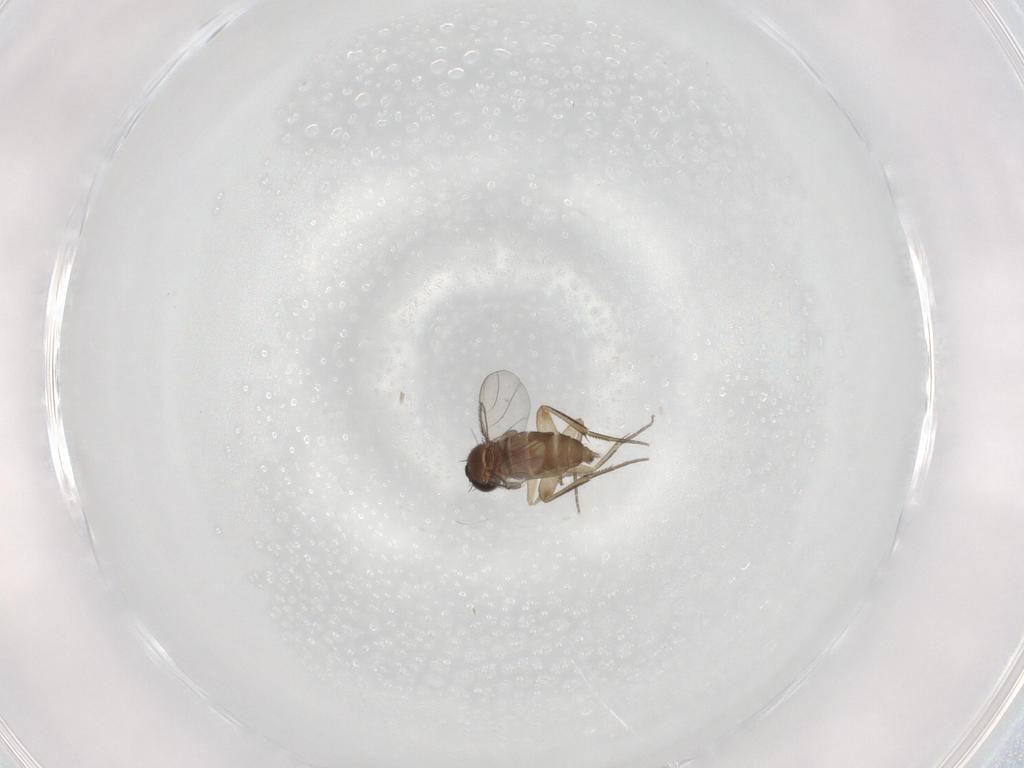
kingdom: Animalia
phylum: Arthropoda
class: Insecta
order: Diptera
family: Phoridae
